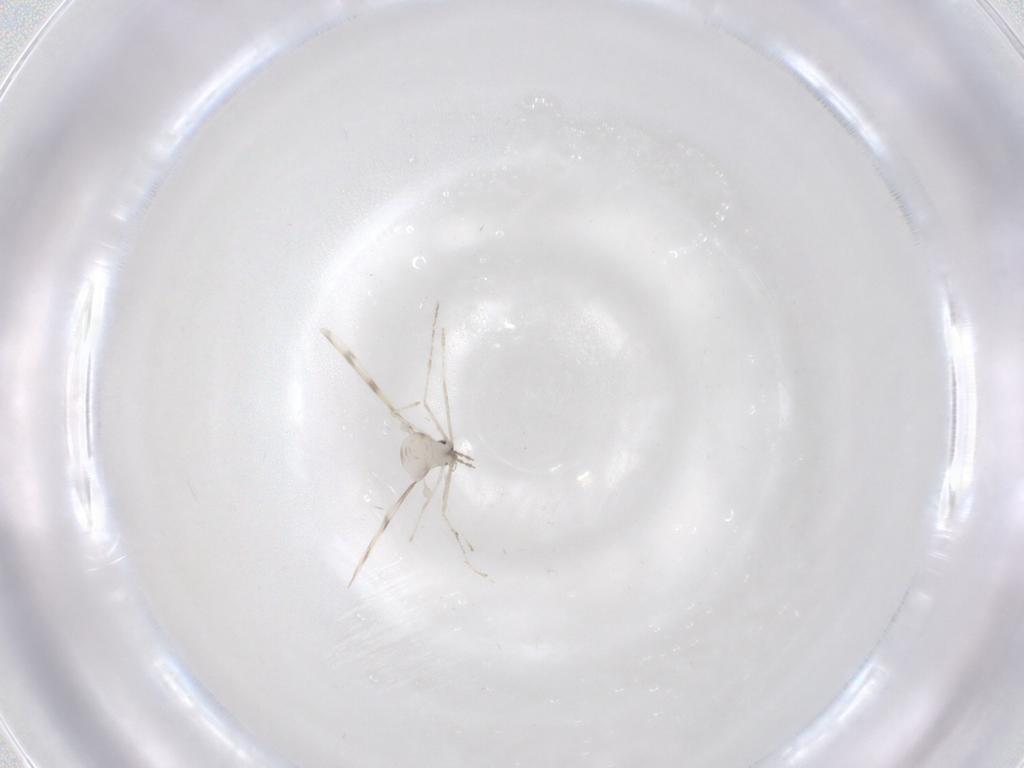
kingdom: Animalia
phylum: Arthropoda
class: Insecta
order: Diptera
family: Cecidomyiidae
